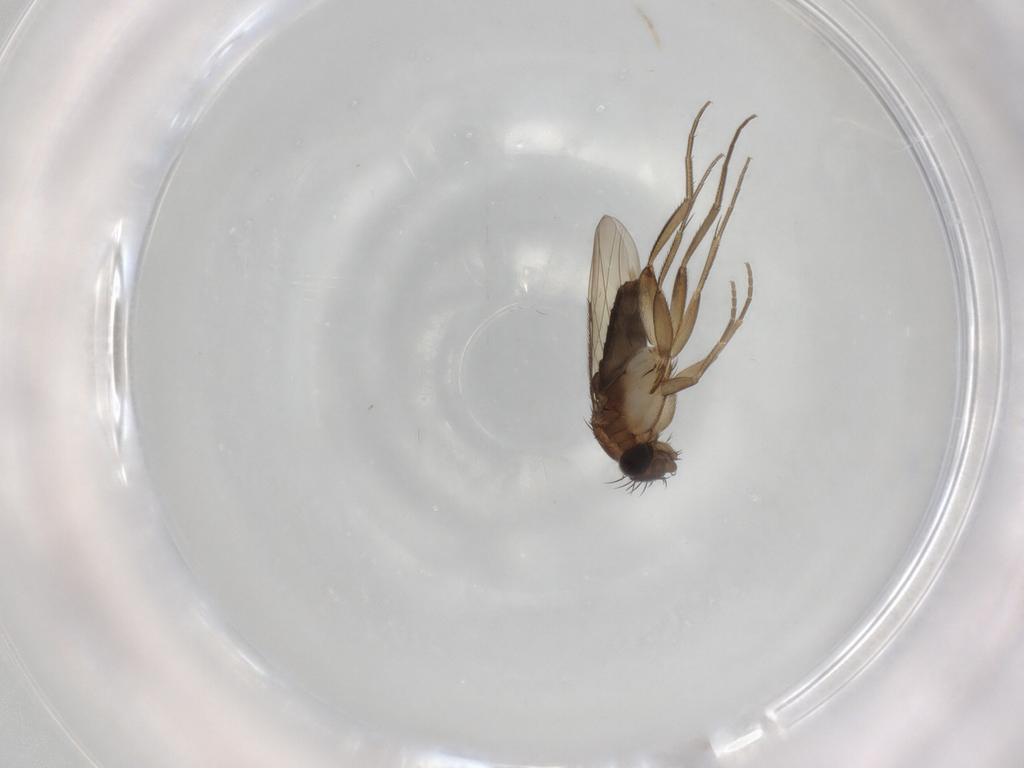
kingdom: Animalia
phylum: Arthropoda
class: Insecta
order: Diptera
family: Phoridae
